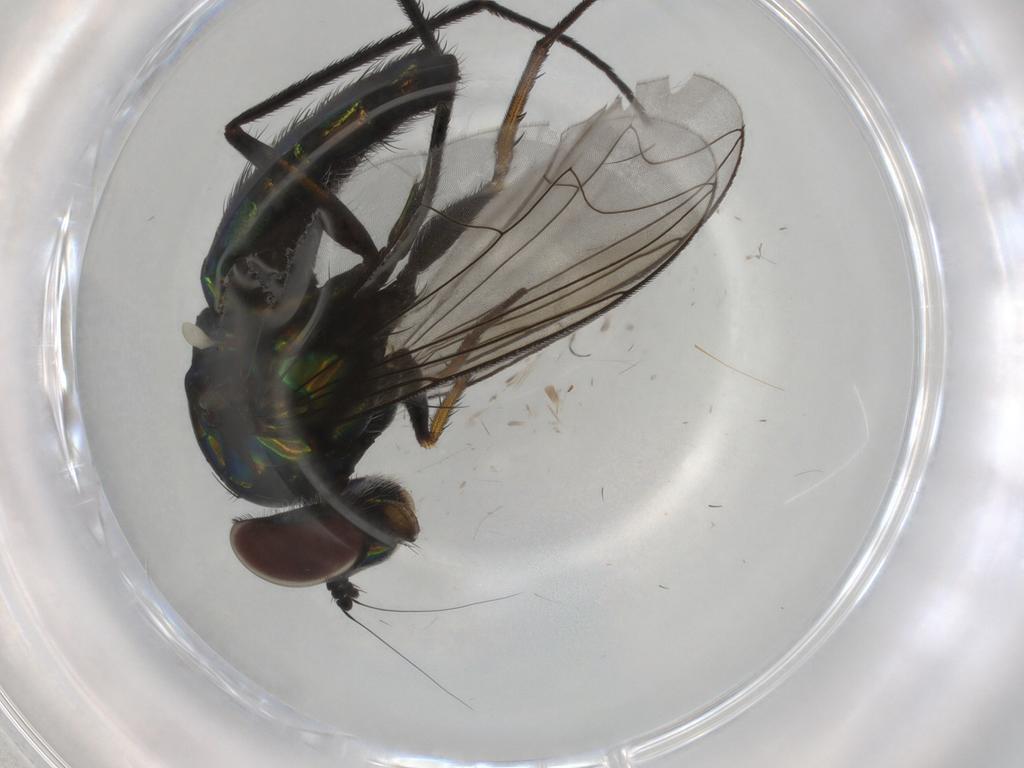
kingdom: Animalia
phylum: Arthropoda
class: Insecta
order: Diptera
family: Dolichopodidae
